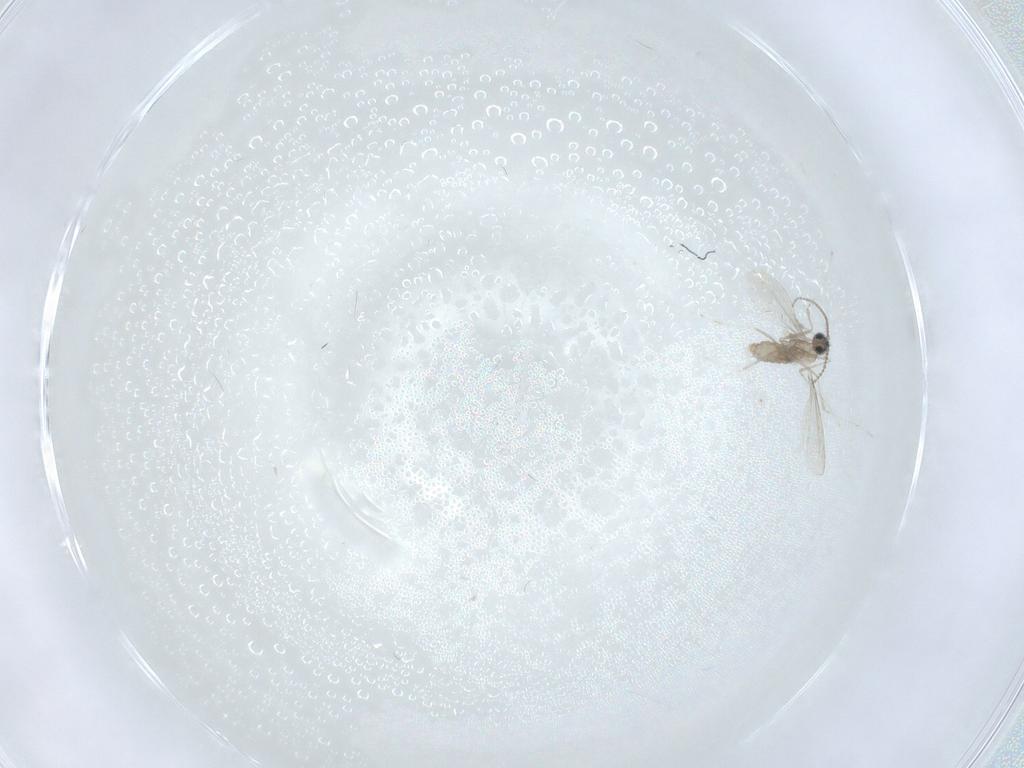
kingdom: Animalia
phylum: Arthropoda
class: Insecta
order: Diptera
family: Cecidomyiidae
